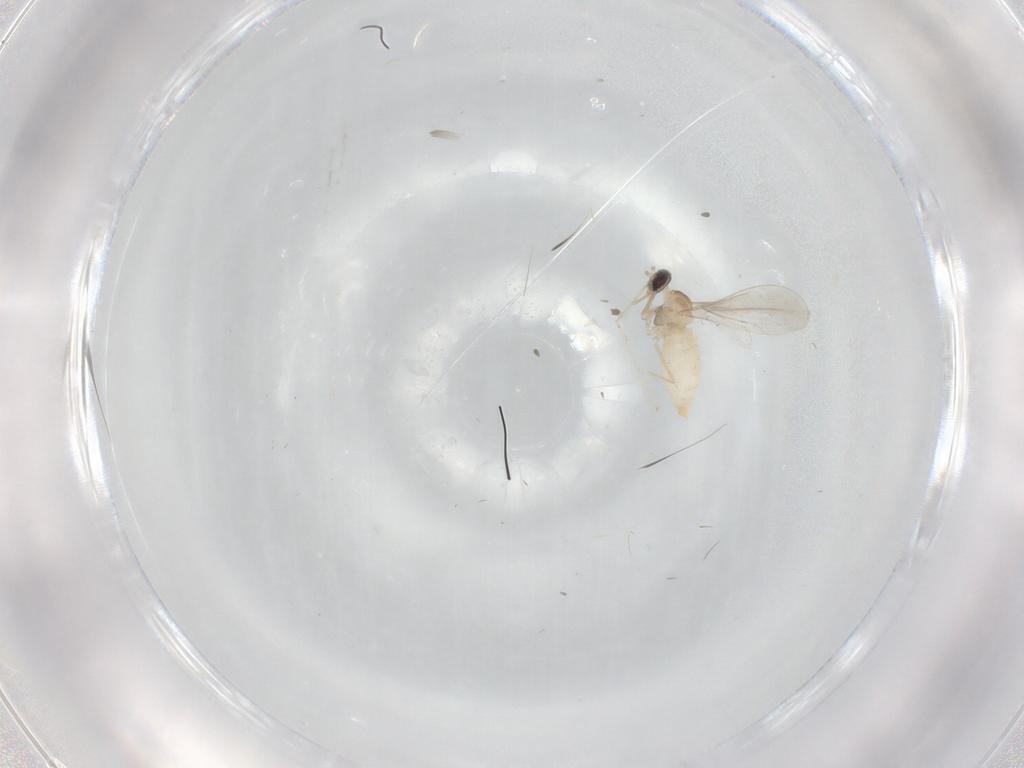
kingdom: Animalia
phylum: Arthropoda
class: Insecta
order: Diptera
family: Cecidomyiidae
